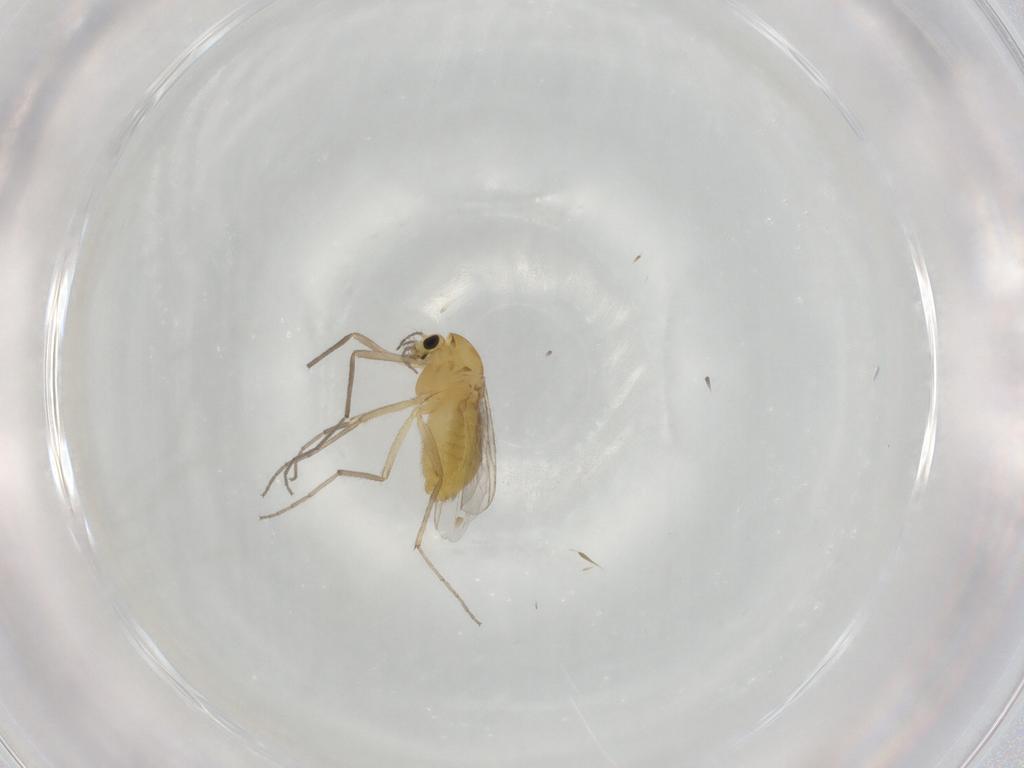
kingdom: Animalia
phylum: Arthropoda
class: Insecta
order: Diptera
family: Chironomidae
